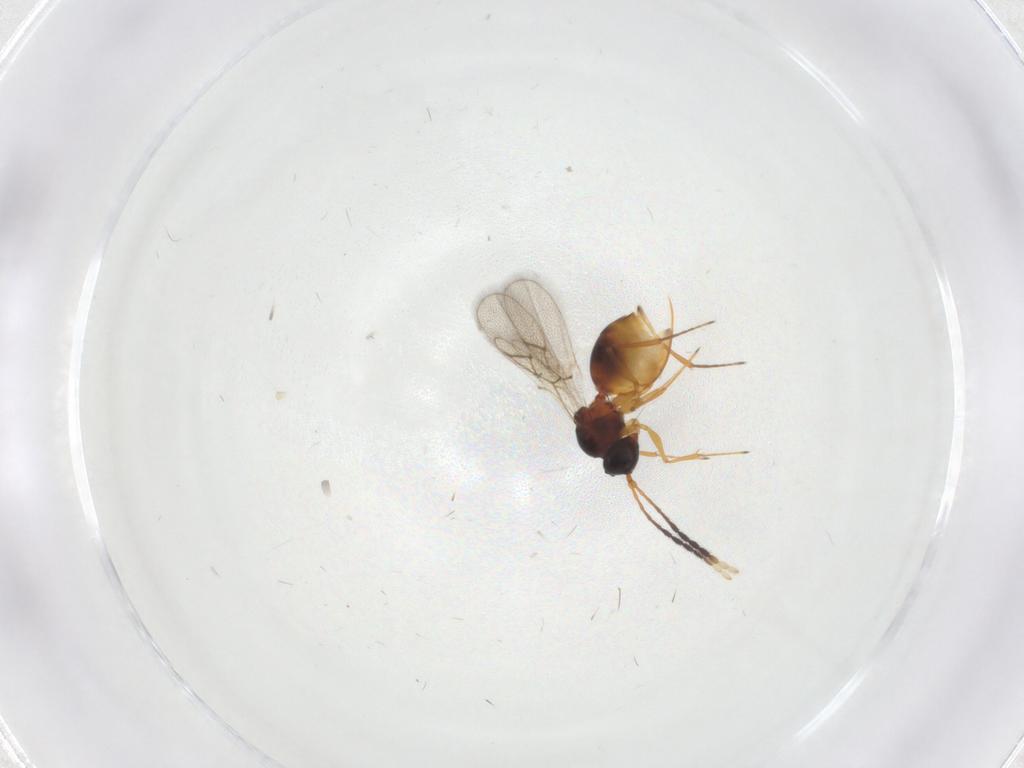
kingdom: Animalia
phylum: Arthropoda
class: Insecta
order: Hymenoptera
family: Figitidae
